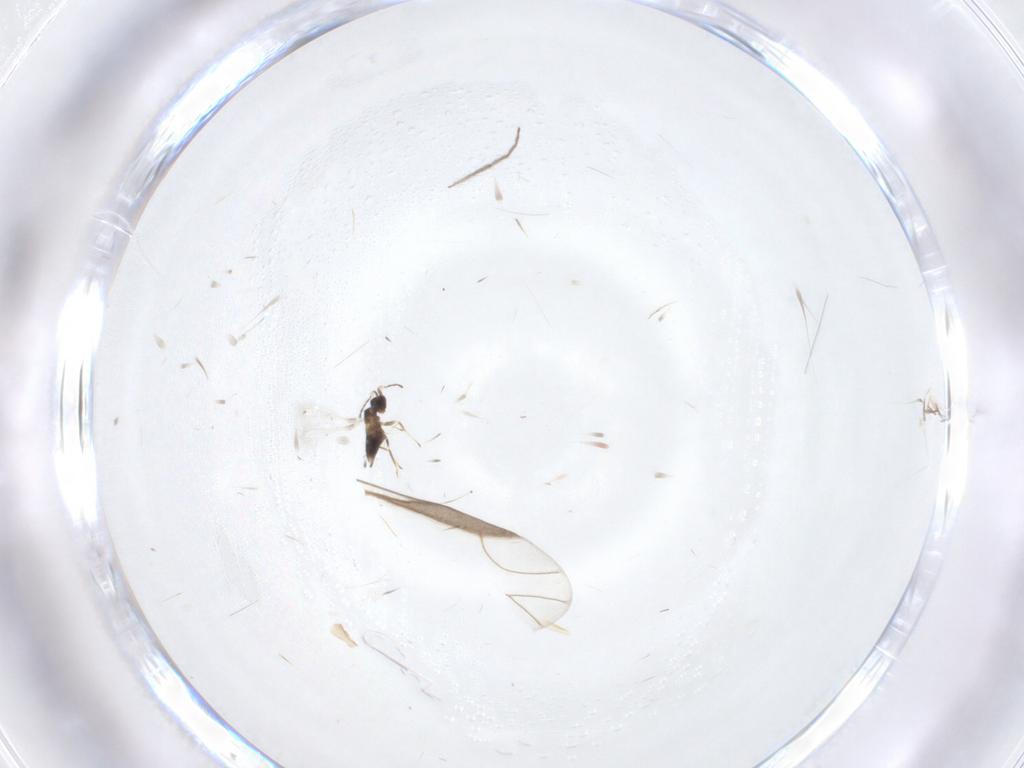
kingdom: Animalia
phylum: Arthropoda
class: Insecta
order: Hymenoptera
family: Mymaridae
